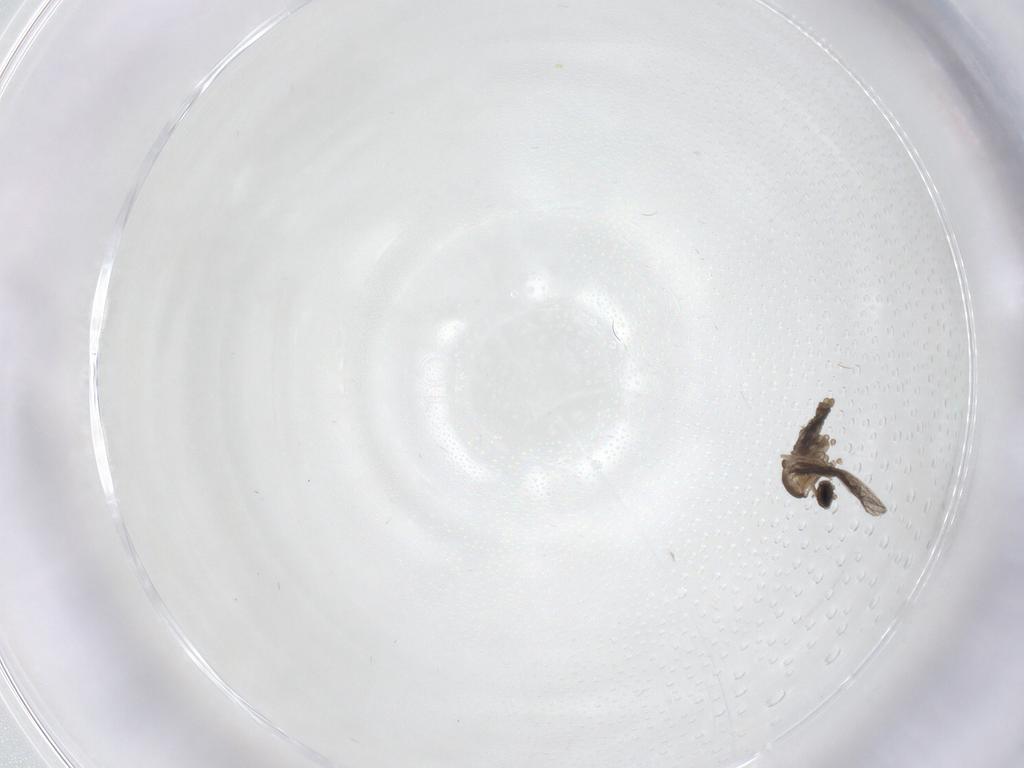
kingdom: Animalia
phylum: Arthropoda
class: Insecta
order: Diptera
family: Cecidomyiidae
